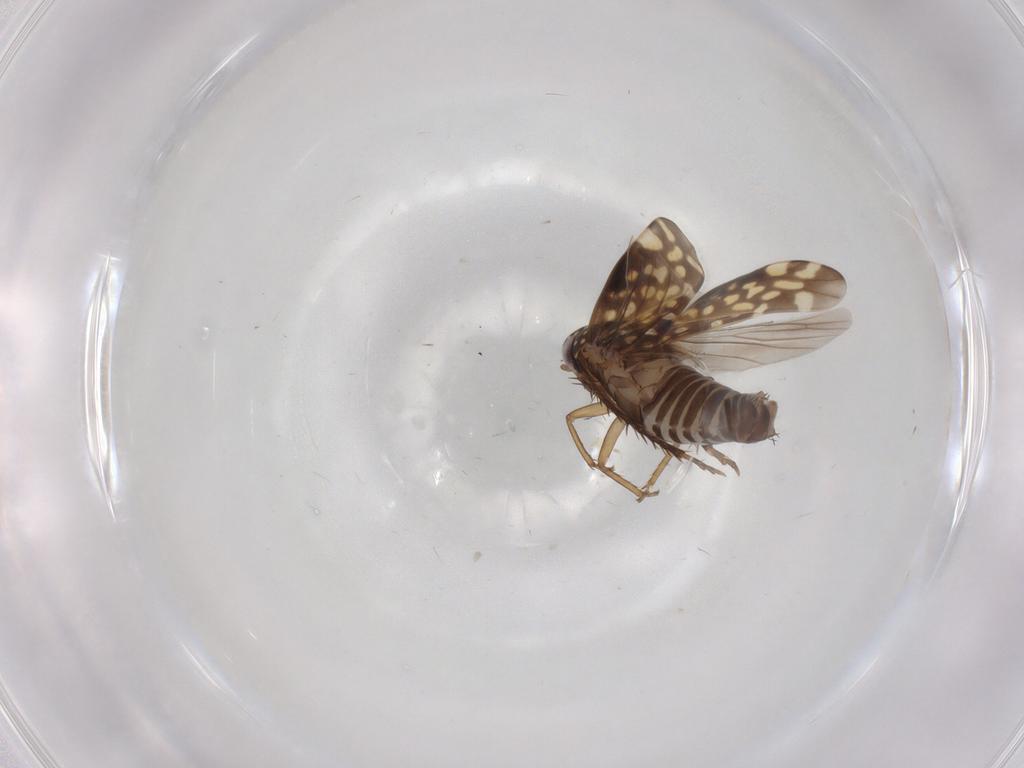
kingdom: Animalia
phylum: Arthropoda
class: Insecta
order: Hemiptera
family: Cicadellidae
